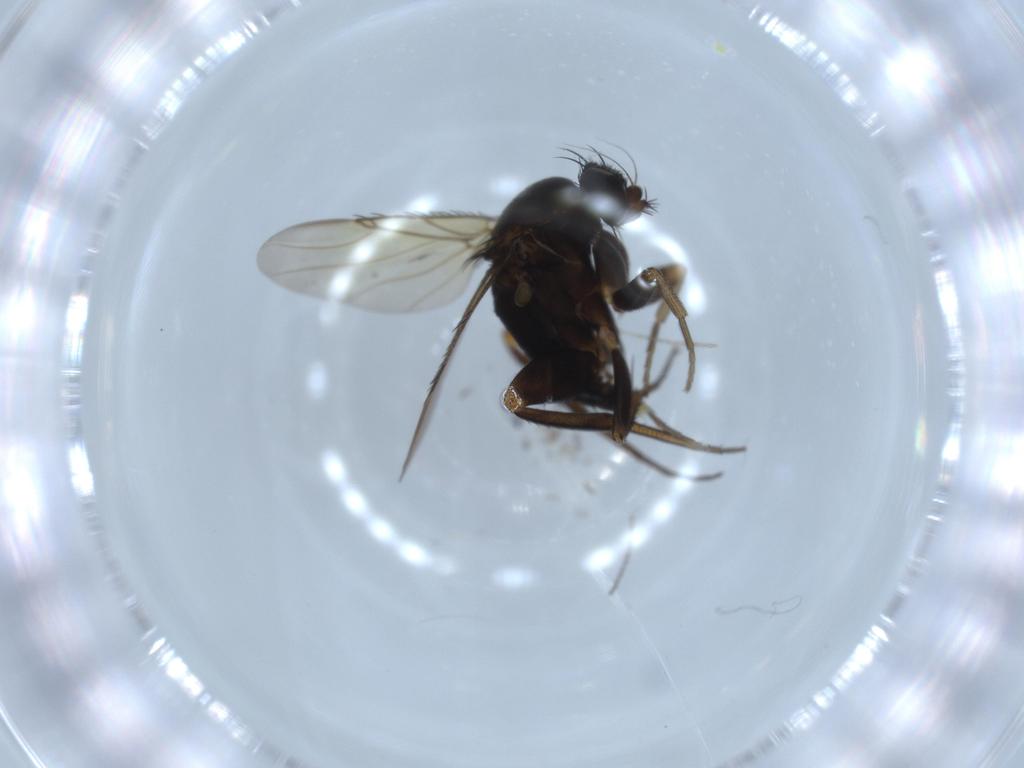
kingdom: Animalia
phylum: Arthropoda
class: Insecta
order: Diptera
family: Phoridae
